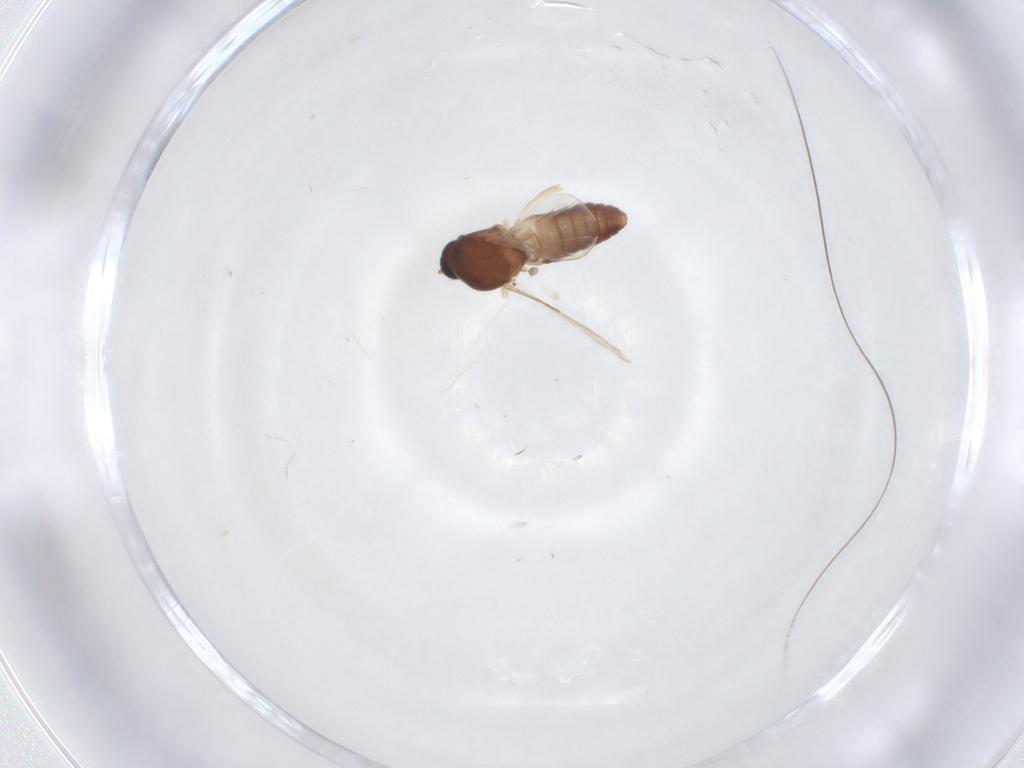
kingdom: Animalia
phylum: Arthropoda
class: Insecta
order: Diptera
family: Ceratopogonidae
